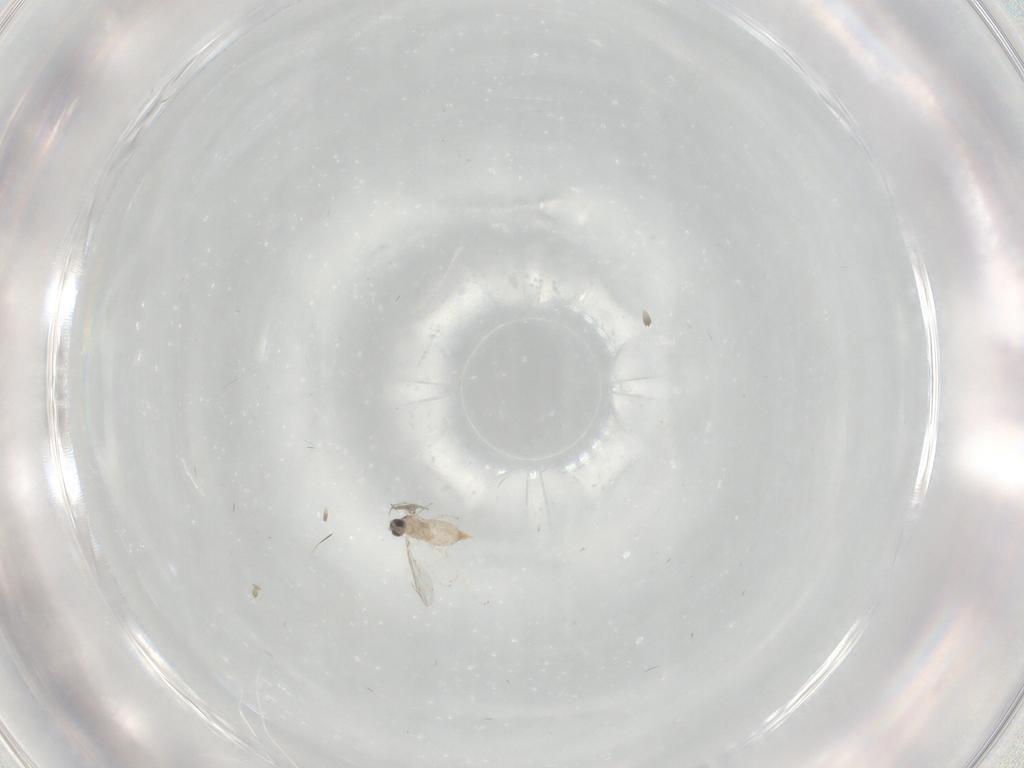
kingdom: Animalia
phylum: Arthropoda
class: Insecta
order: Diptera
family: Cecidomyiidae
